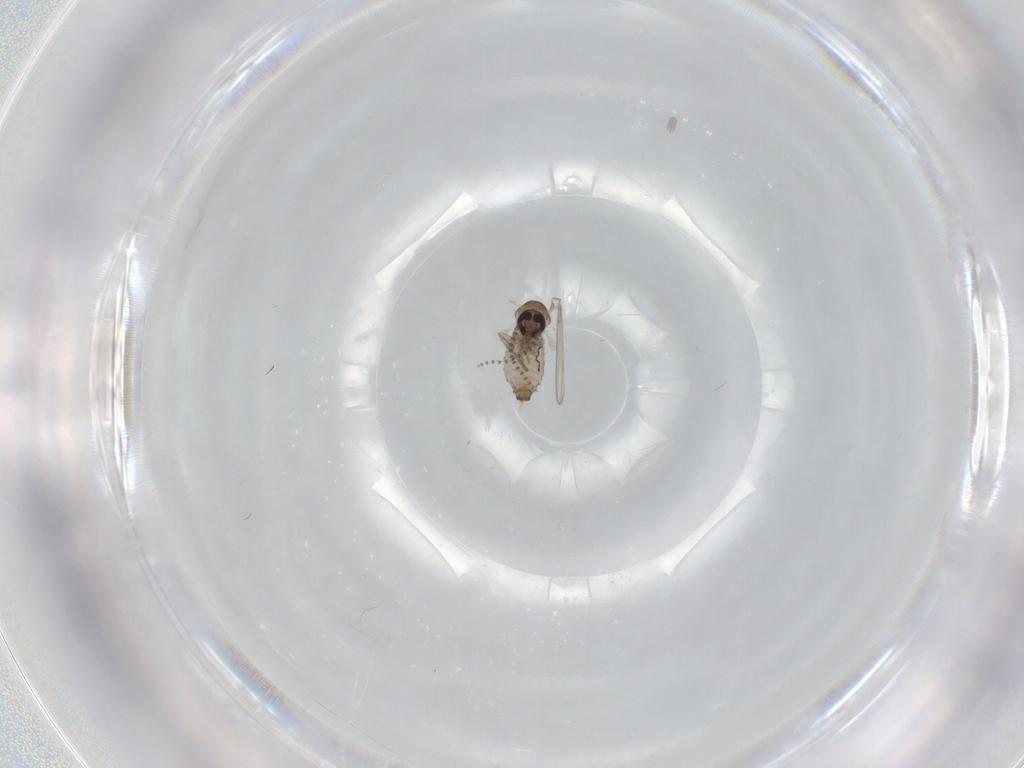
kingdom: Animalia
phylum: Arthropoda
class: Insecta
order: Diptera
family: Psychodidae
